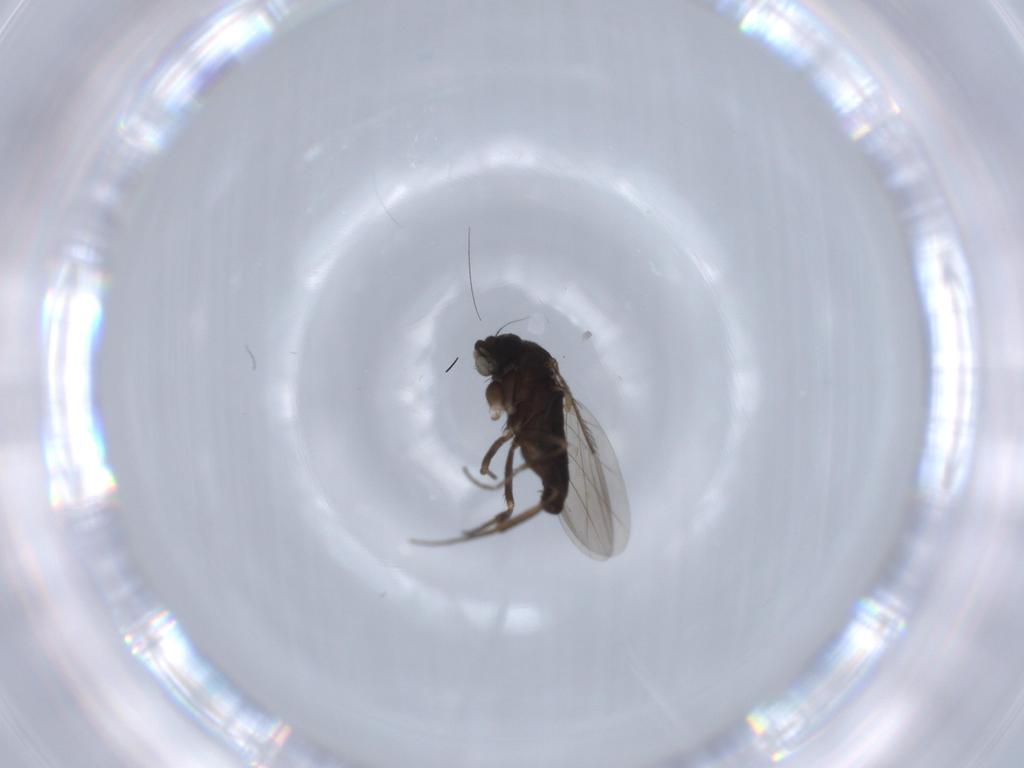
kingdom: Animalia
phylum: Arthropoda
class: Insecta
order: Diptera
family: Phoridae
